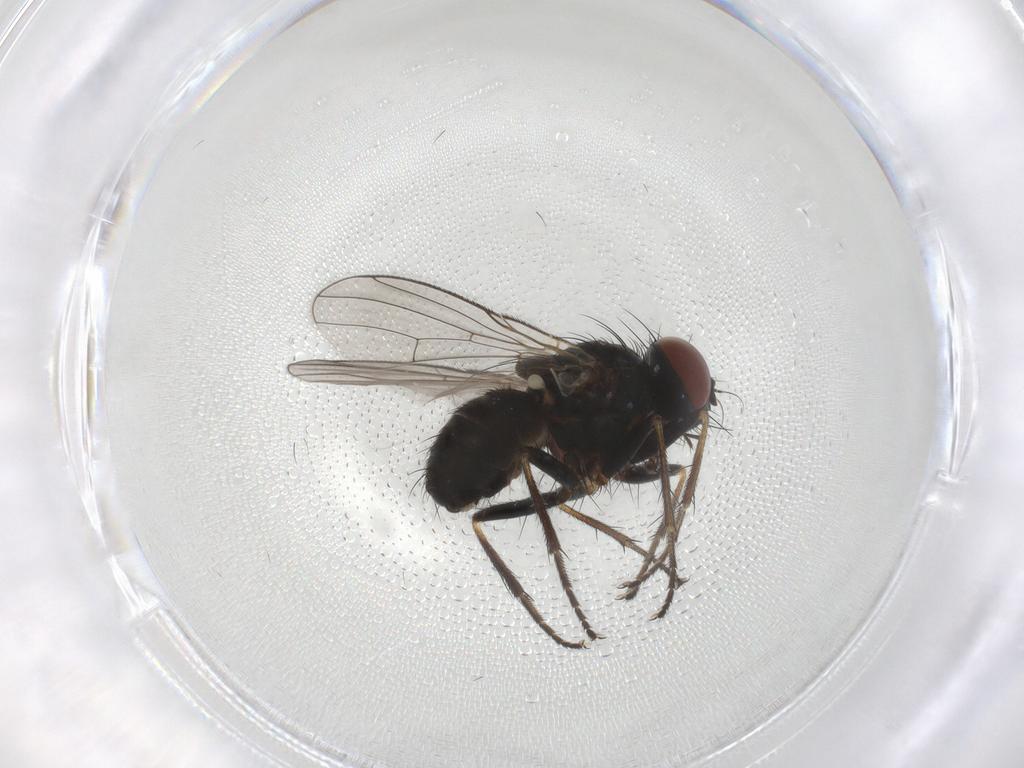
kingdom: Animalia
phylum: Arthropoda
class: Insecta
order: Diptera
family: Muscidae
